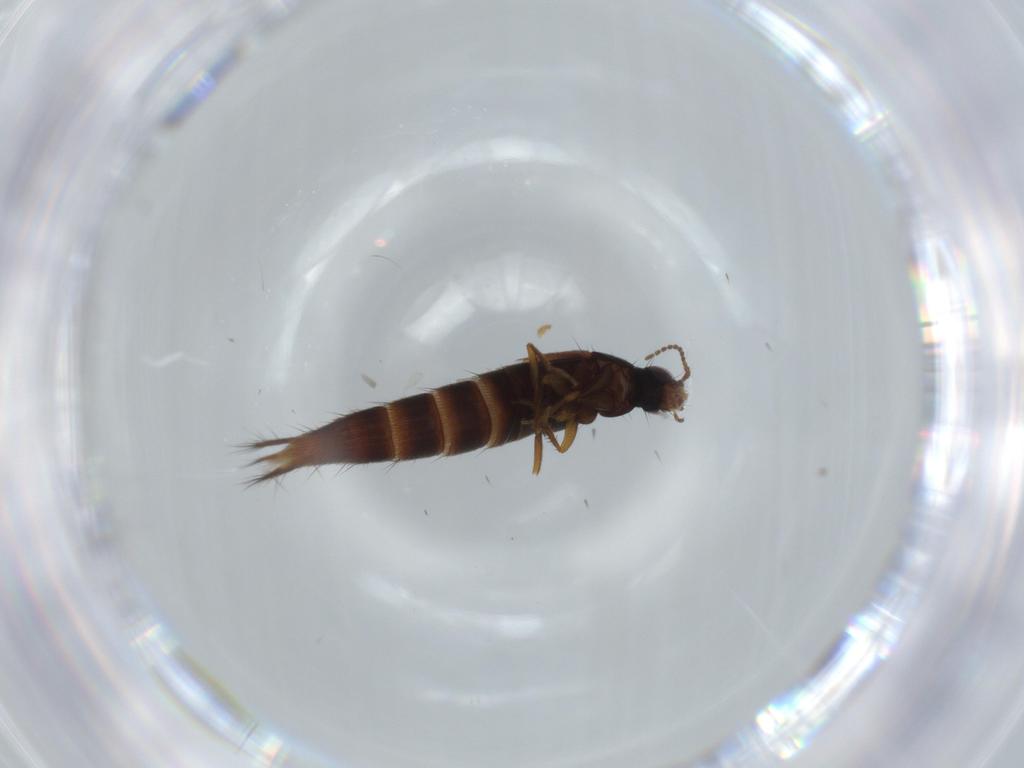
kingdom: Animalia
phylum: Arthropoda
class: Insecta
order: Coleoptera
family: Staphylinidae
